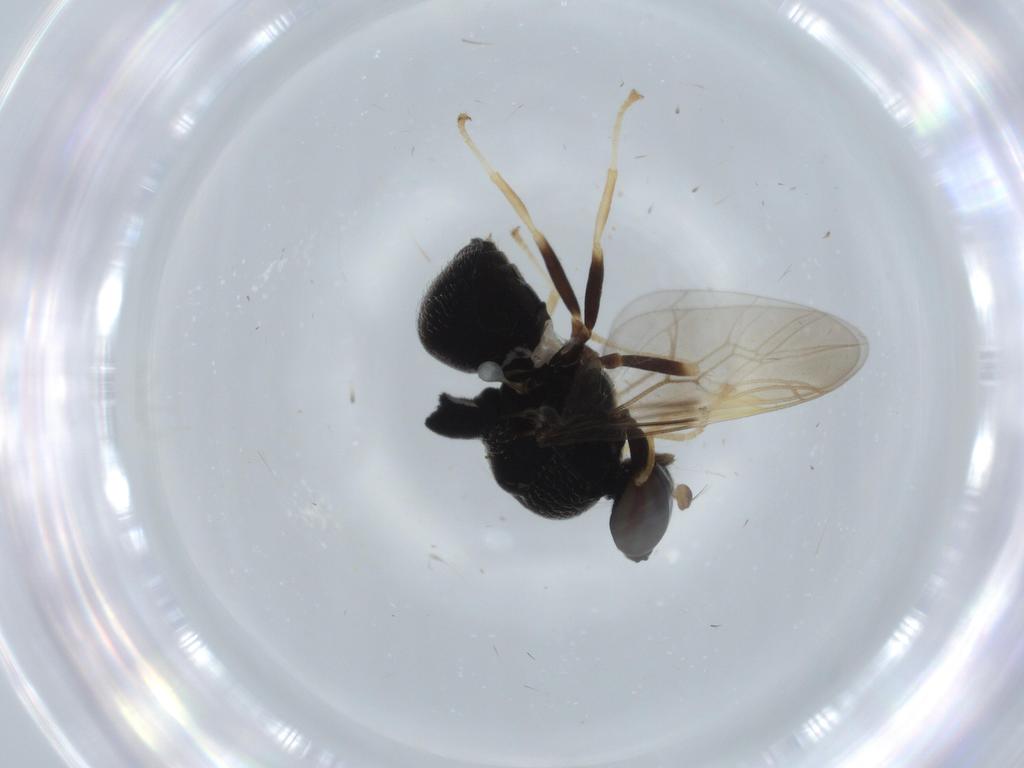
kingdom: Animalia
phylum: Arthropoda
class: Insecta
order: Diptera
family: Stratiomyidae
